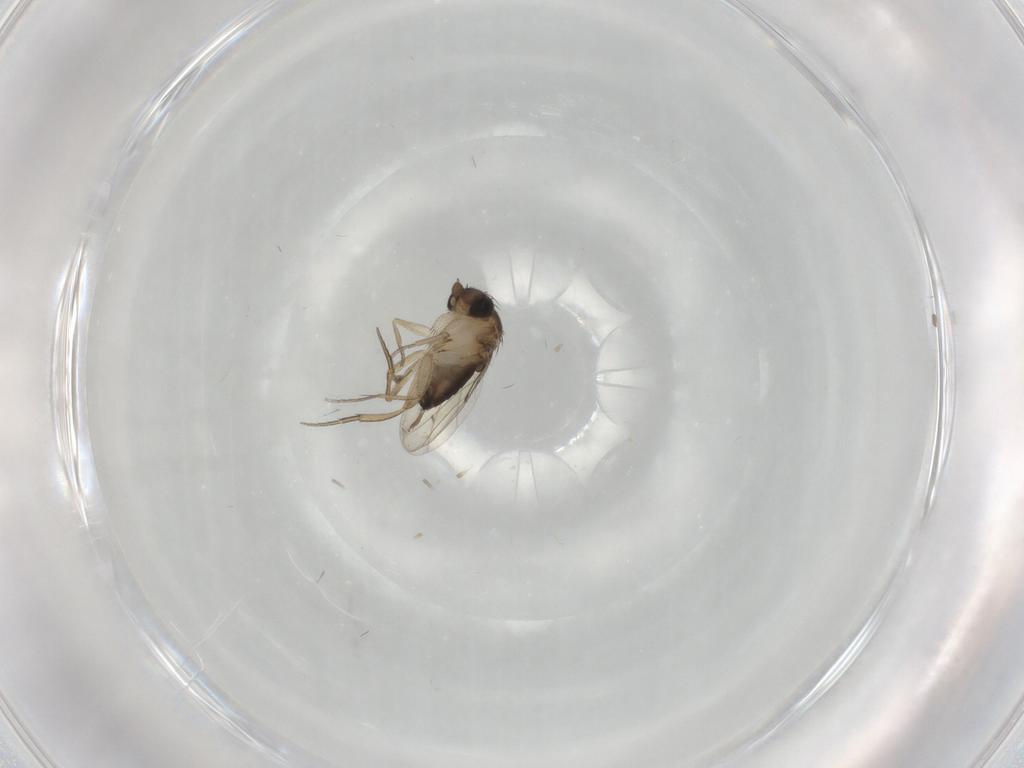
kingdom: Animalia
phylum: Arthropoda
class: Insecta
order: Diptera
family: Cecidomyiidae
